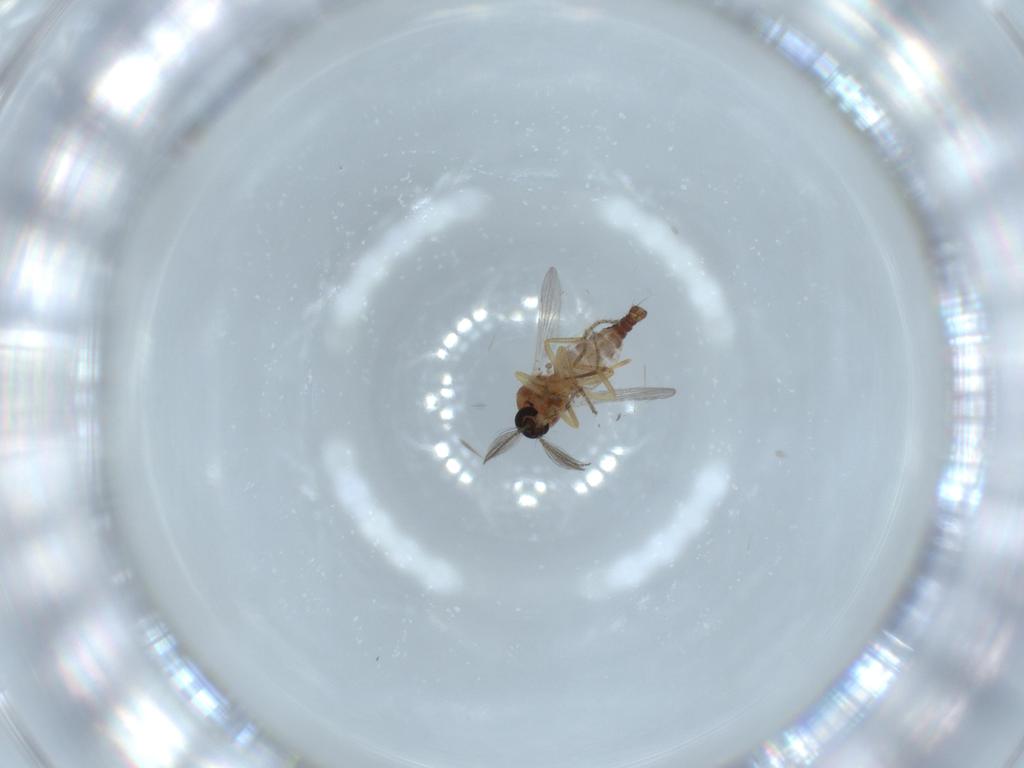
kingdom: Animalia
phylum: Arthropoda
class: Insecta
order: Diptera
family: Ceratopogonidae
